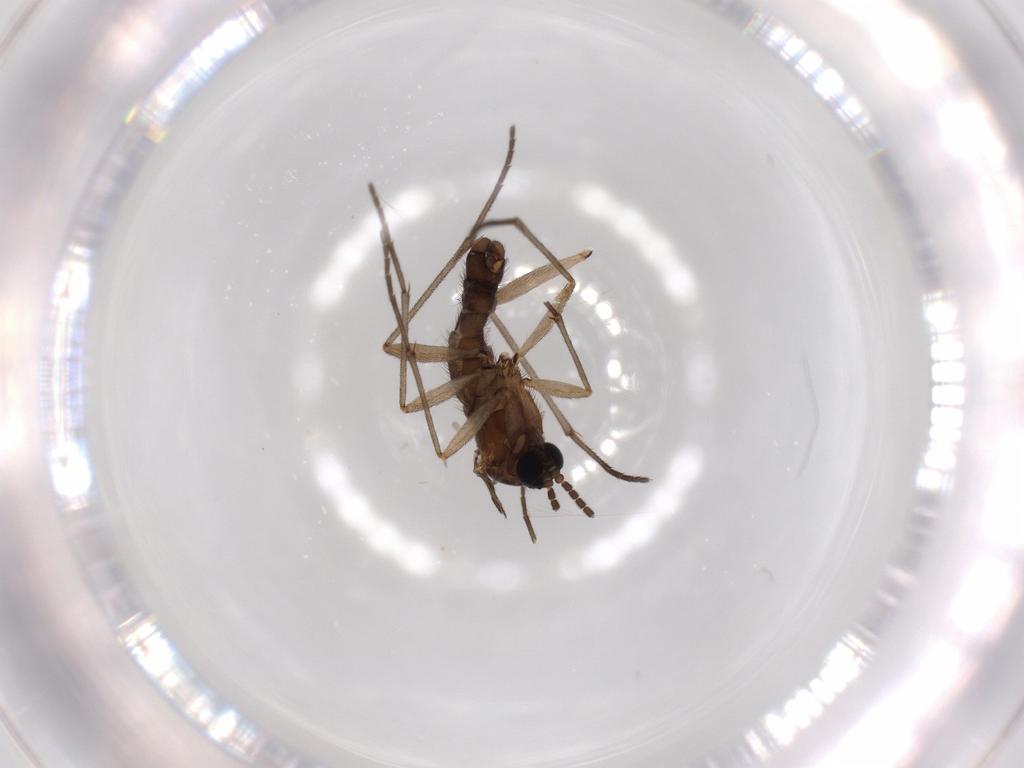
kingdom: Animalia
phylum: Arthropoda
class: Insecta
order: Diptera
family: Sciaridae
